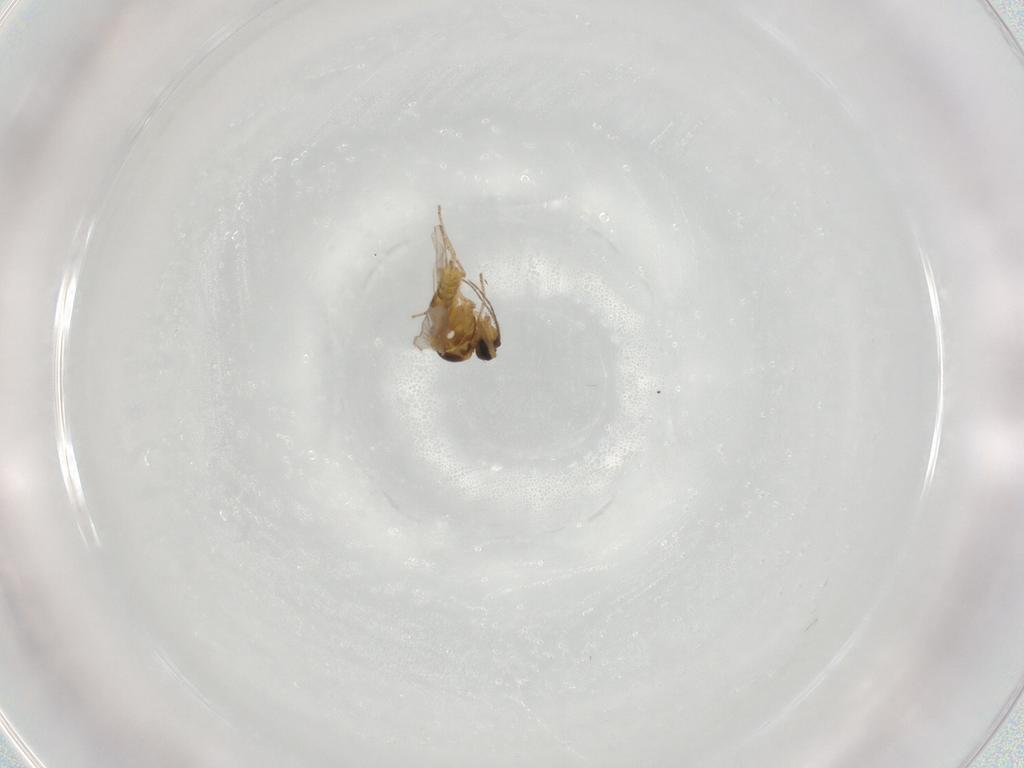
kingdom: Animalia
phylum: Arthropoda
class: Insecta
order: Diptera
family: Ceratopogonidae
